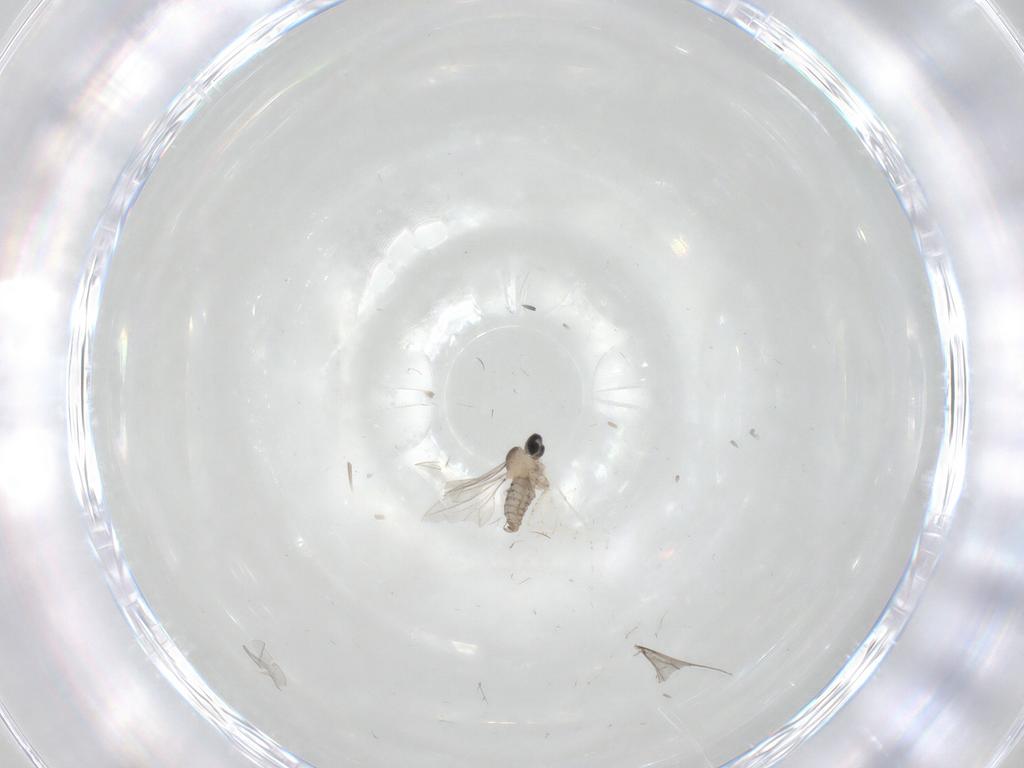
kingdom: Animalia
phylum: Arthropoda
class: Insecta
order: Diptera
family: Cecidomyiidae
